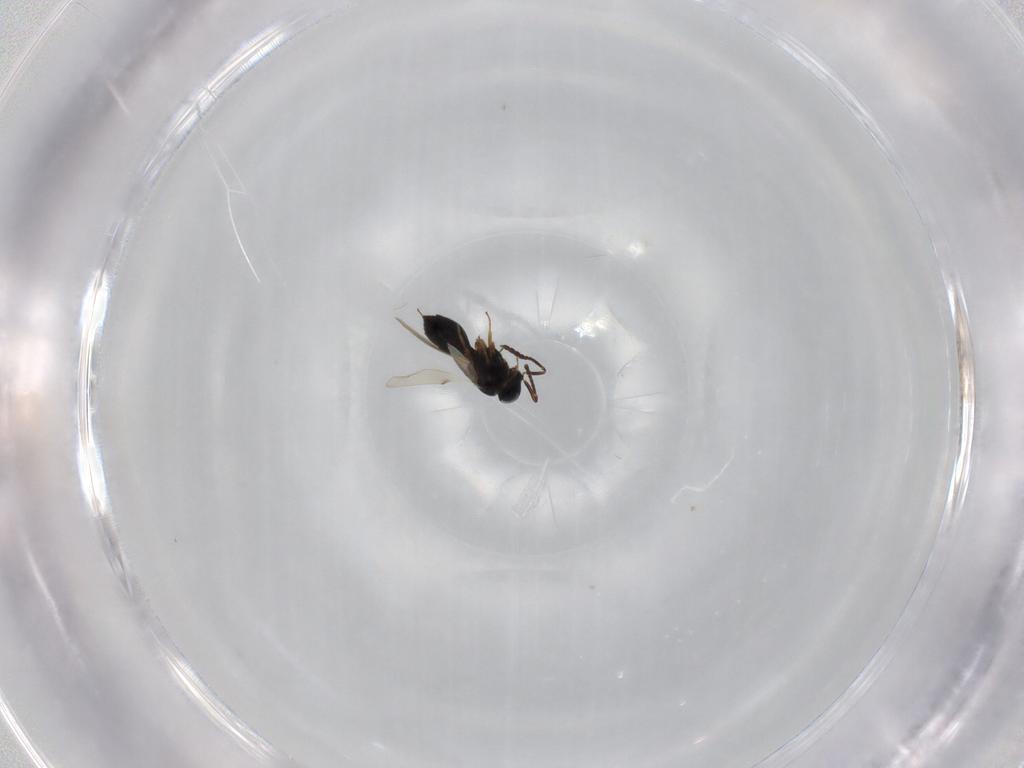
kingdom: Animalia
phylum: Arthropoda
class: Insecta
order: Hymenoptera
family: Scelionidae
